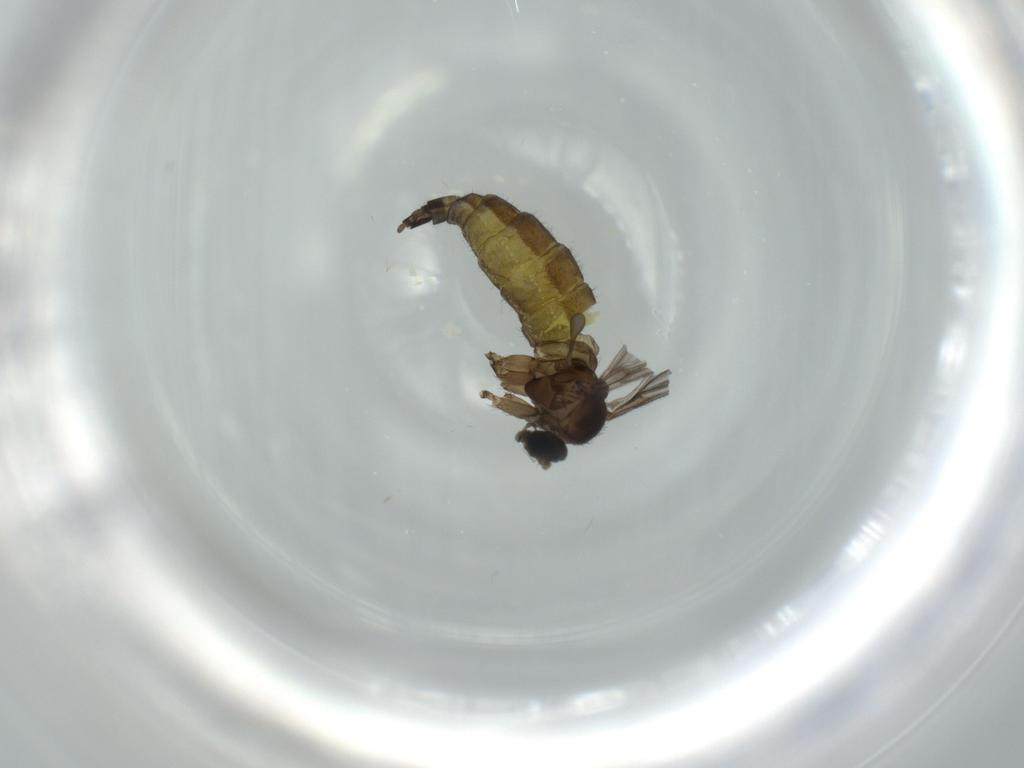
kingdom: Animalia
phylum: Arthropoda
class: Insecta
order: Diptera
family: Sciaridae
